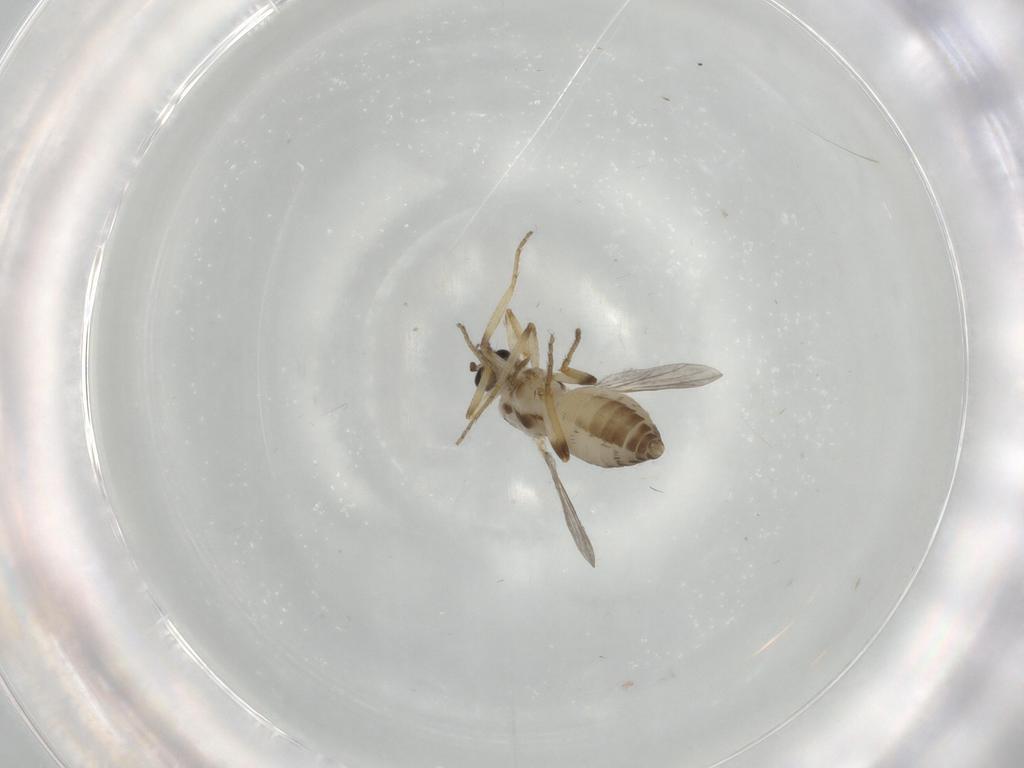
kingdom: Animalia
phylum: Arthropoda
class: Insecta
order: Diptera
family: Ceratopogonidae
